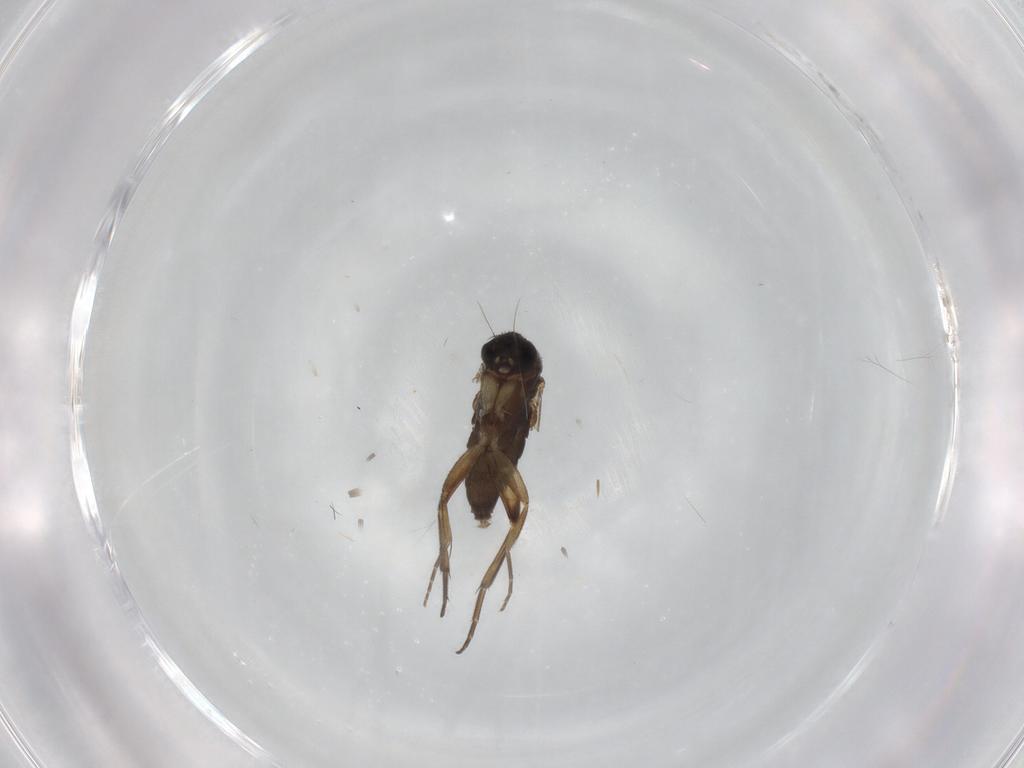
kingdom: Animalia
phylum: Arthropoda
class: Insecta
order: Diptera
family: Phoridae
